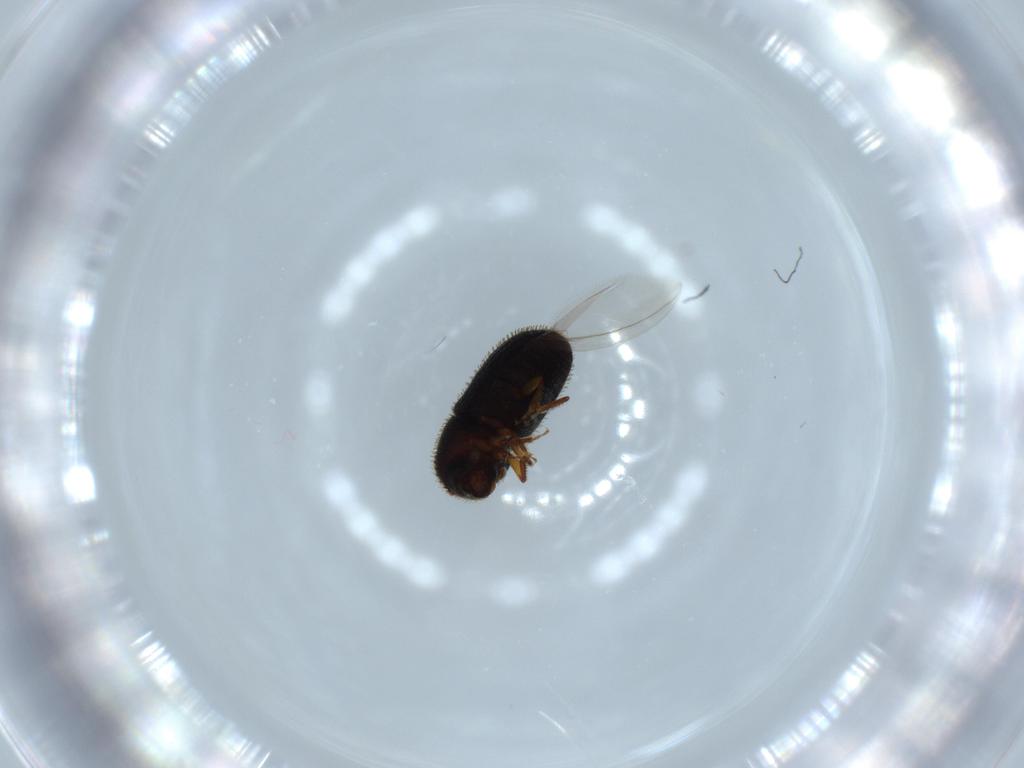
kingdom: Animalia
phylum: Arthropoda
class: Insecta
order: Coleoptera
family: Curculionidae
